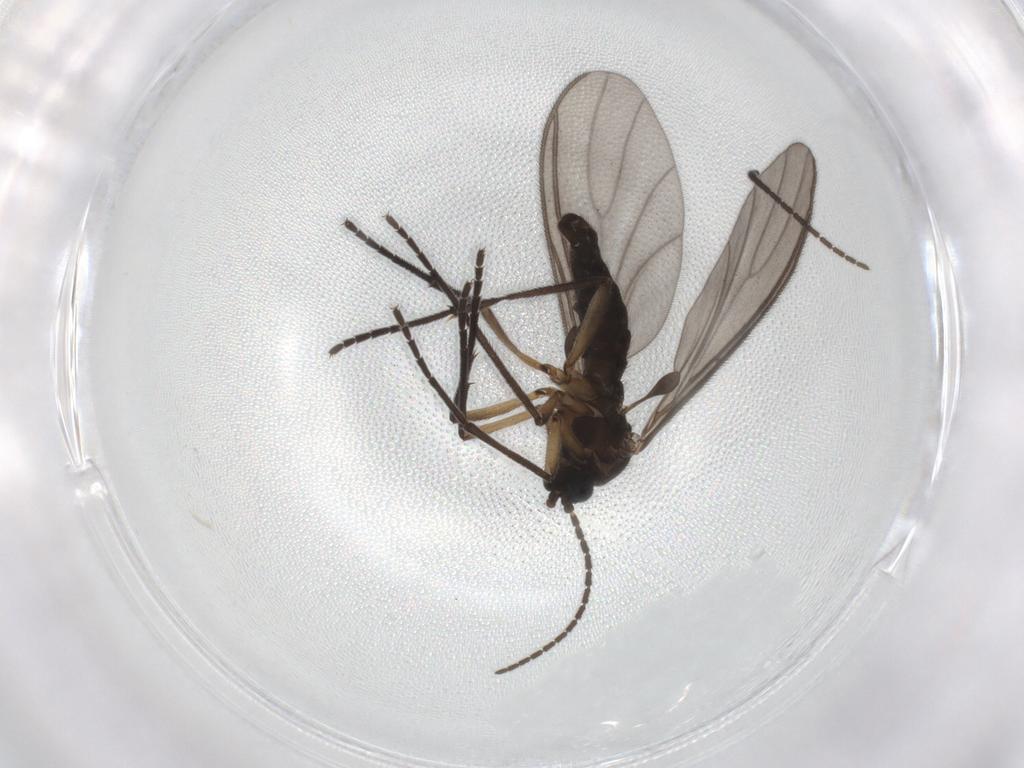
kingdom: Animalia
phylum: Arthropoda
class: Insecta
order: Diptera
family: Sciaridae
